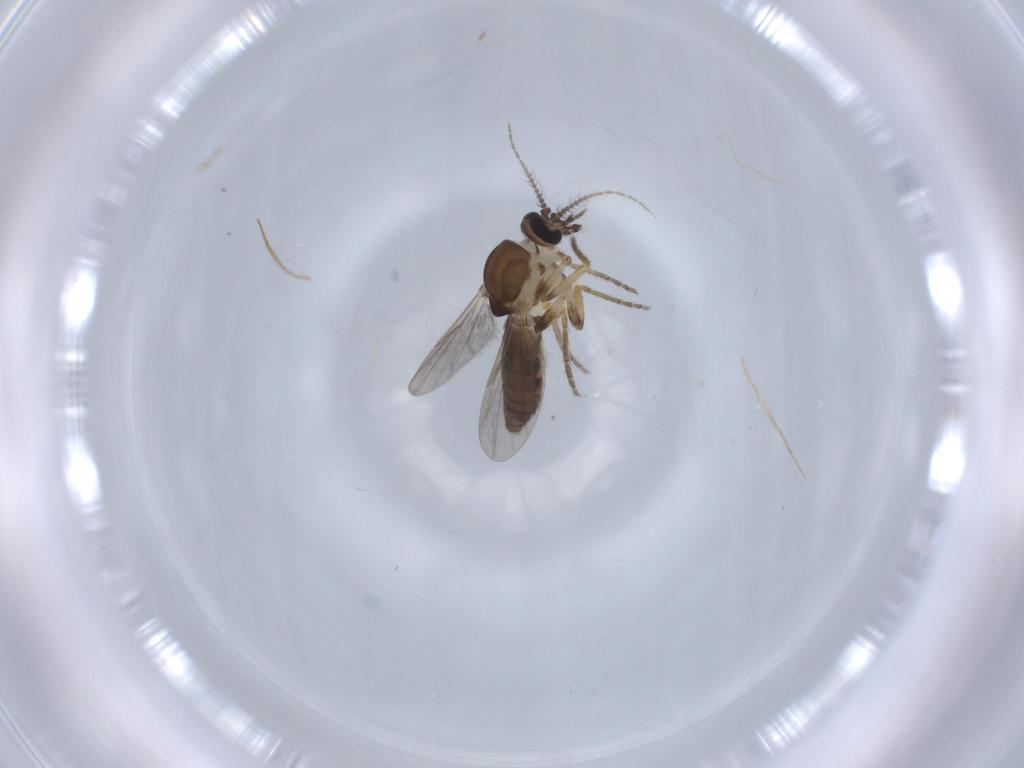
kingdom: Animalia
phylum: Arthropoda
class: Insecta
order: Diptera
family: Ceratopogonidae
